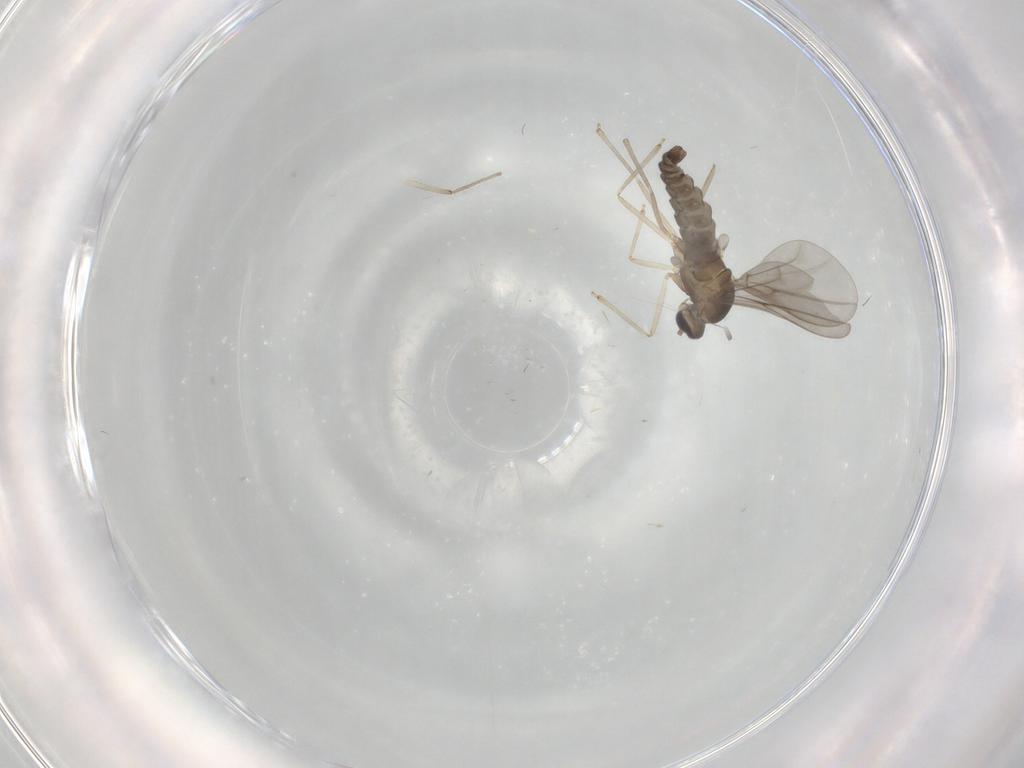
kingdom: Animalia
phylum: Arthropoda
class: Insecta
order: Diptera
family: Cecidomyiidae
